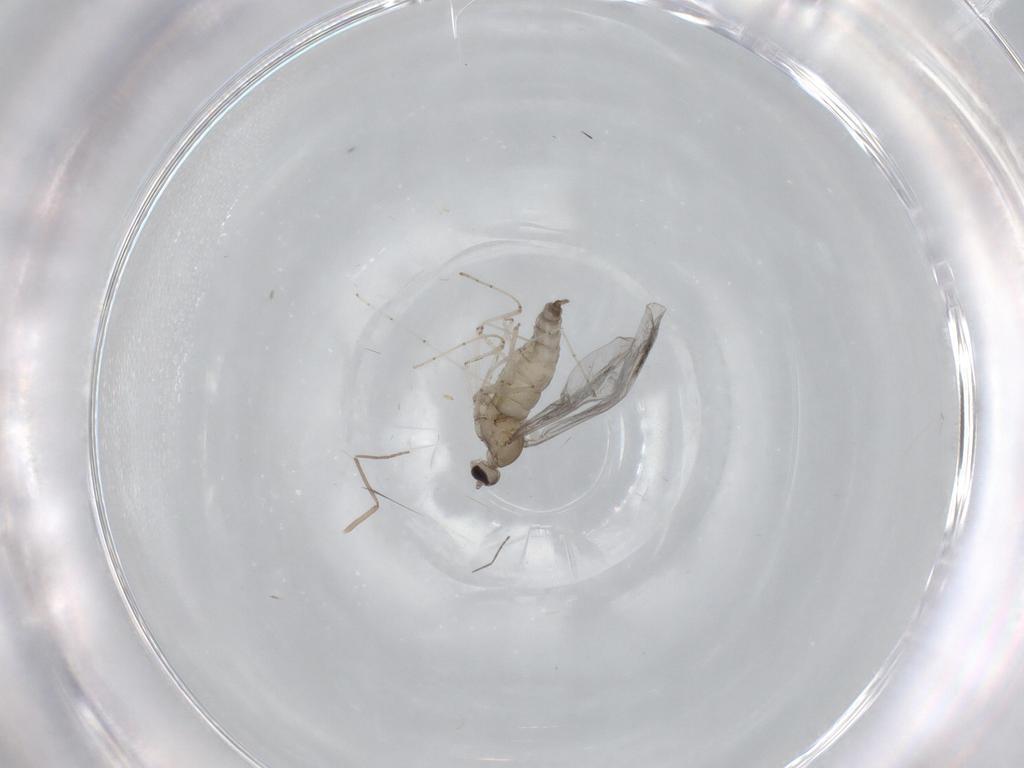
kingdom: Animalia
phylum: Arthropoda
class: Insecta
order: Diptera
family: Cecidomyiidae
